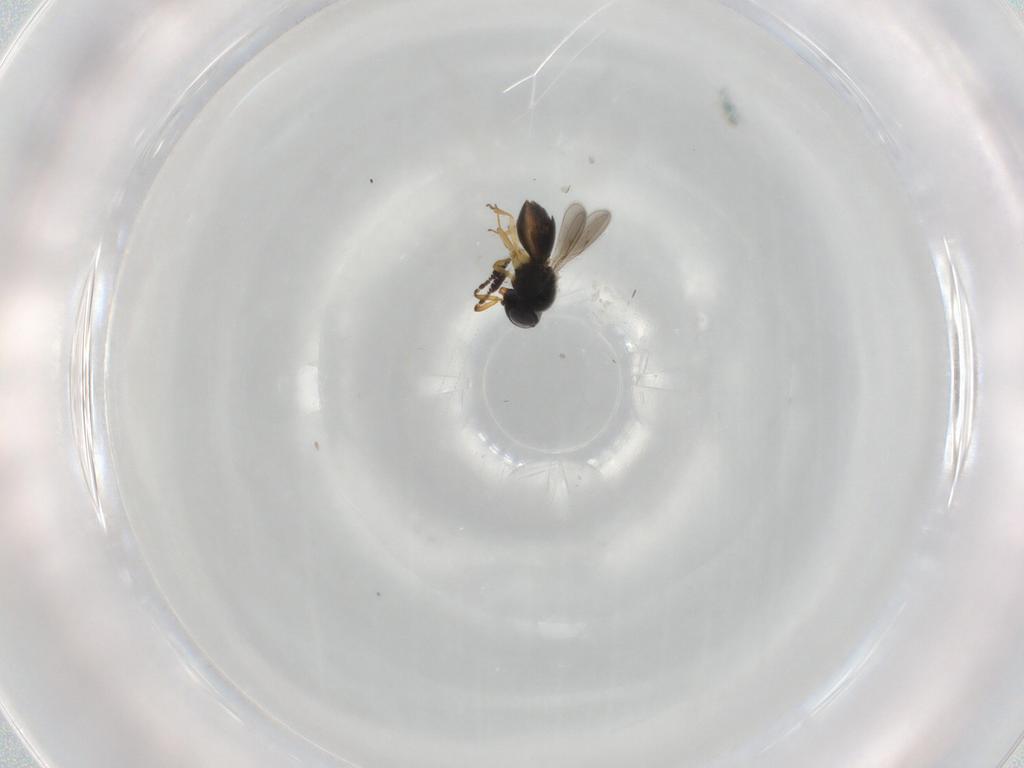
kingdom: Animalia
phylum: Arthropoda
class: Insecta
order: Hymenoptera
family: Scelionidae
